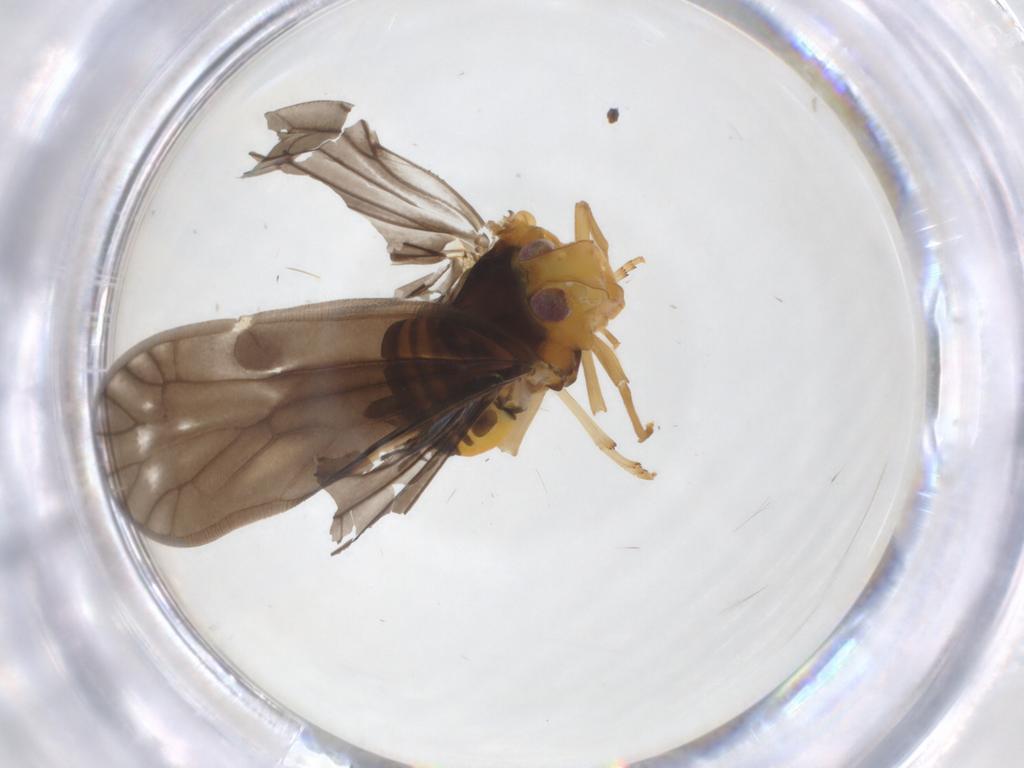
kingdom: Animalia
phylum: Arthropoda
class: Insecta
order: Hemiptera
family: Kinnaridae
